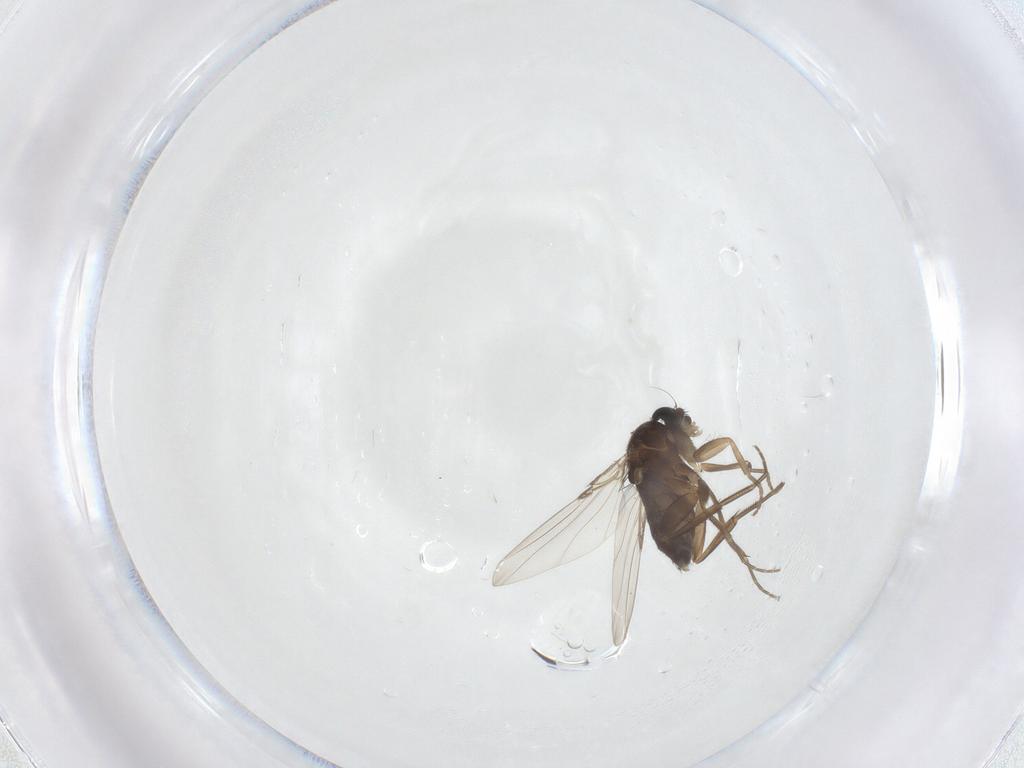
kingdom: Animalia
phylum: Arthropoda
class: Insecta
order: Diptera
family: Phoridae
